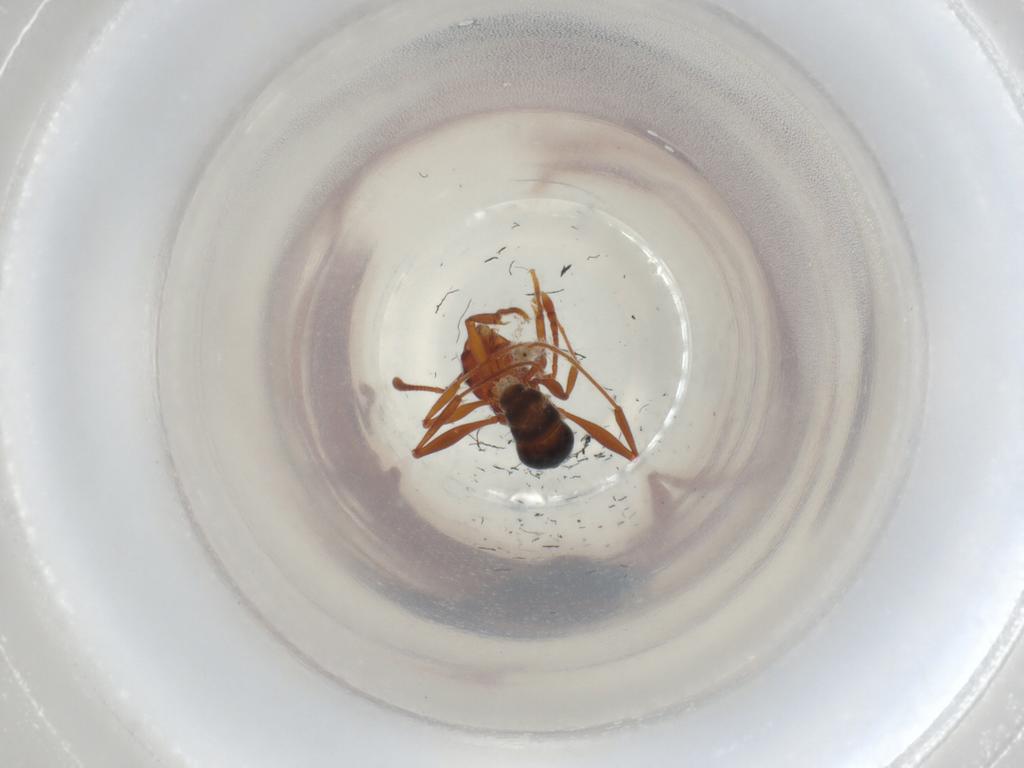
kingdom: Animalia
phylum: Arthropoda
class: Insecta
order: Hymenoptera
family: Formicidae
